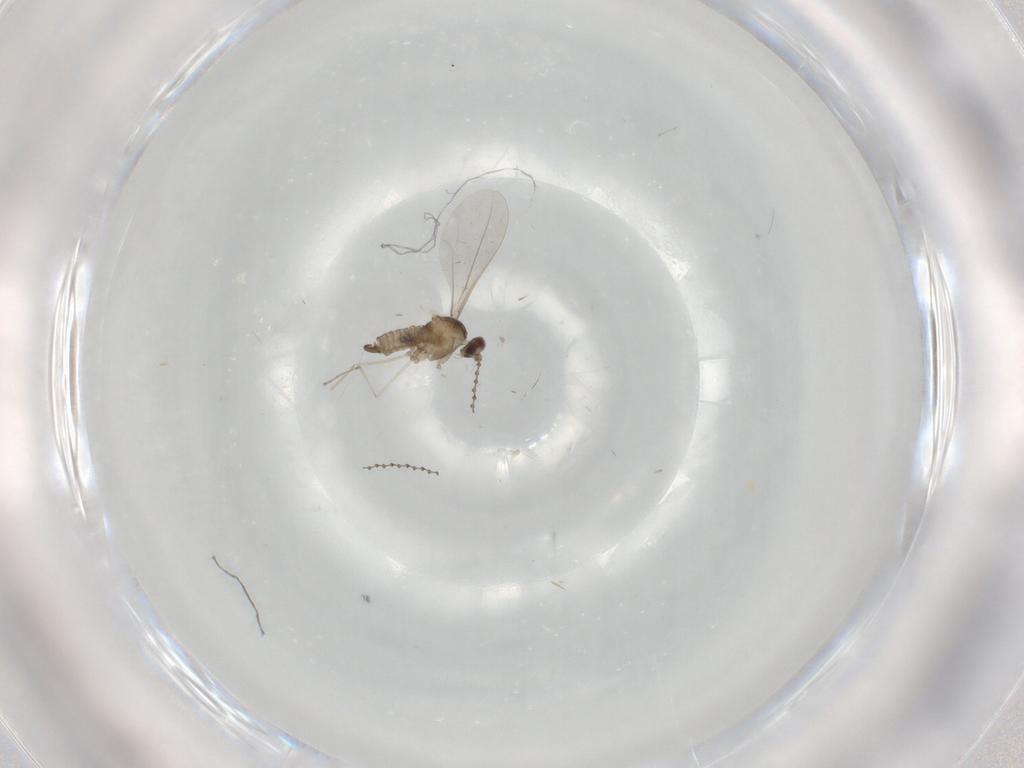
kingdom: Animalia
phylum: Arthropoda
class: Insecta
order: Diptera
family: Cecidomyiidae
